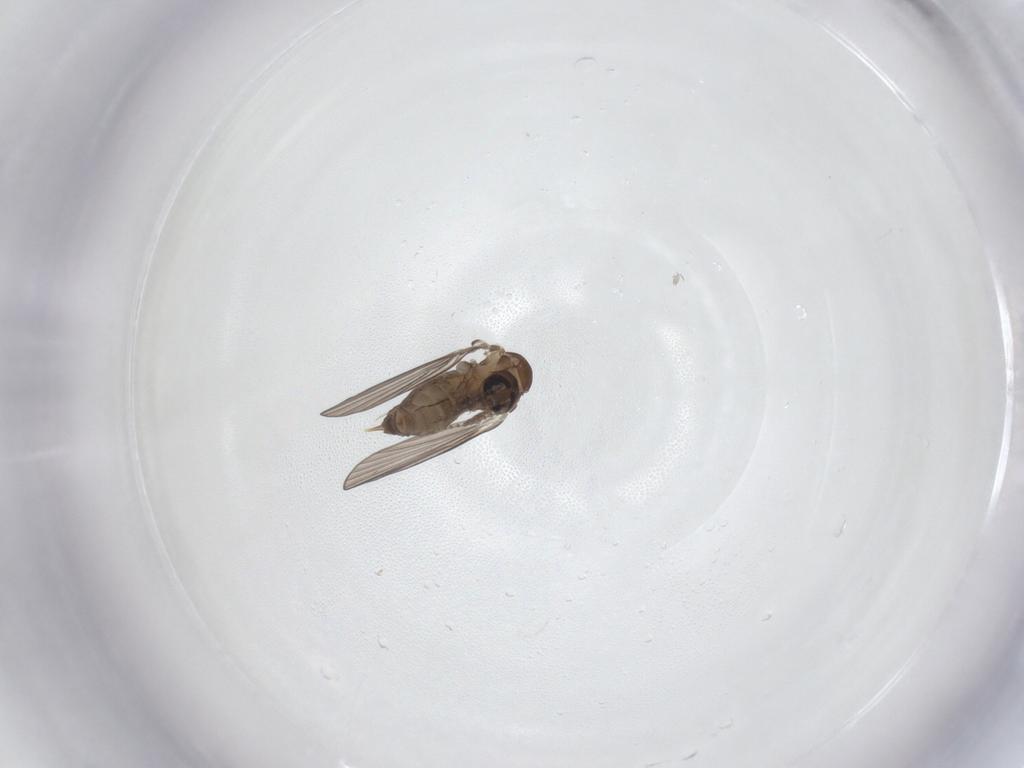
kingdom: Animalia
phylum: Arthropoda
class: Insecta
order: Diptera
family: Psychodidae
